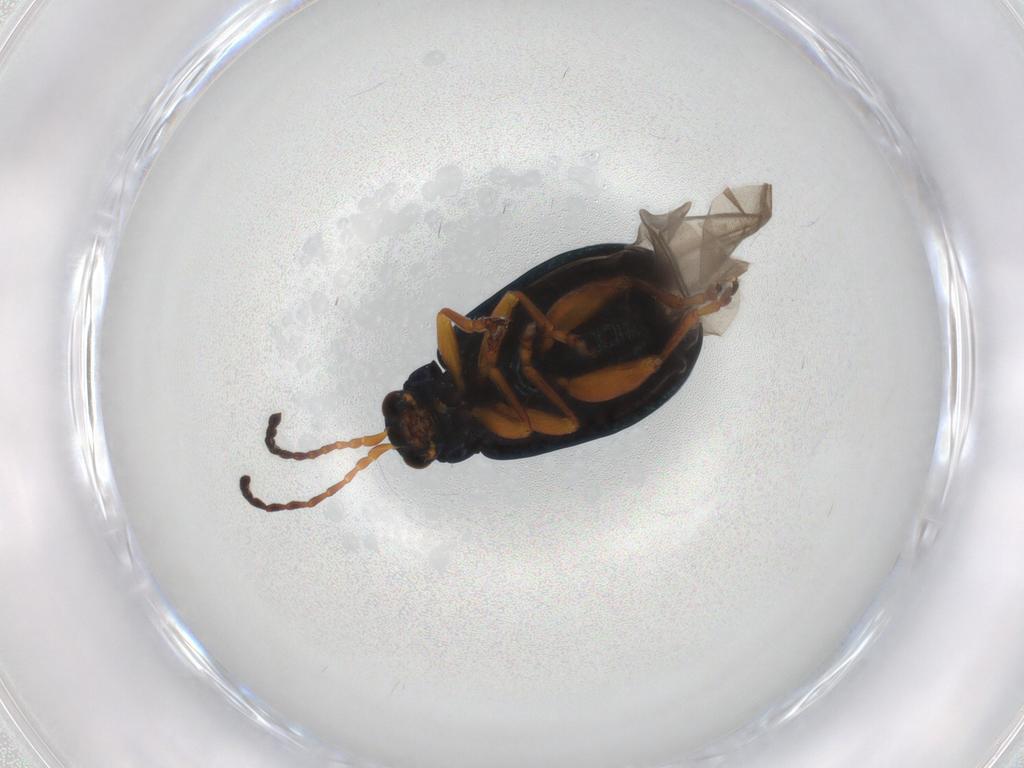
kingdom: Animalia
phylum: Arthropoda
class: Insecta
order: Coleoptera
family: Chrysomelidae
